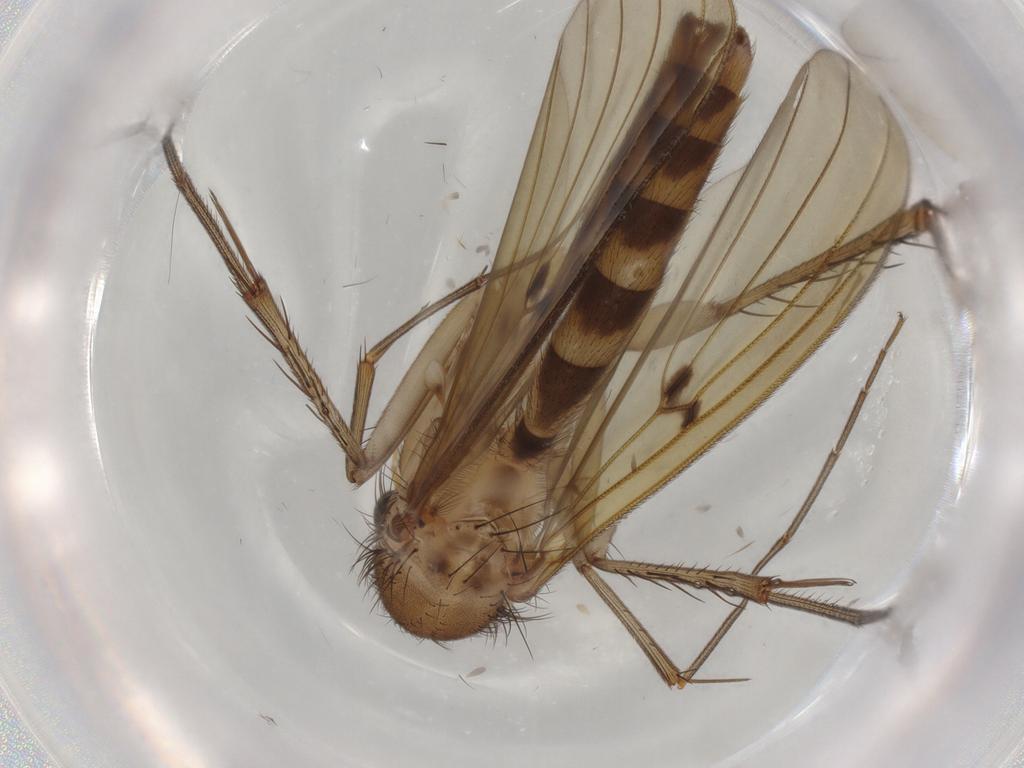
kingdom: Animalia
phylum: Arthropoda
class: Insecta
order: Diptera
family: Mycetophilidae
